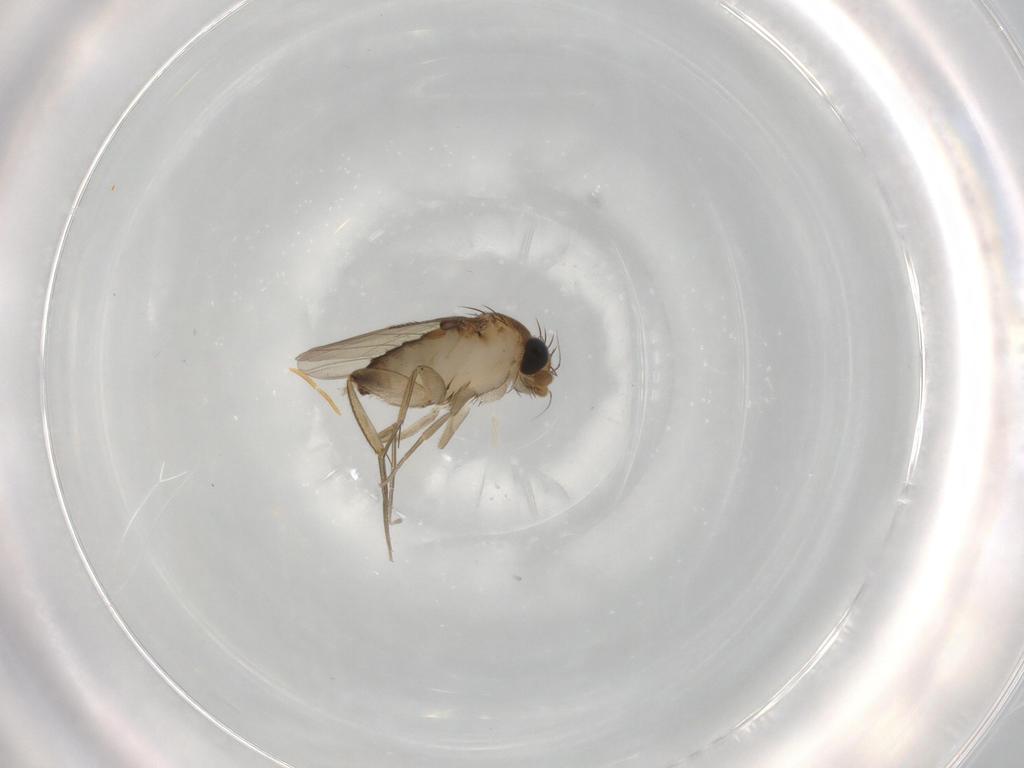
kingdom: Animalia
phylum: Arthropoda
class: Insecta
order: Diptera
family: Phoridae
